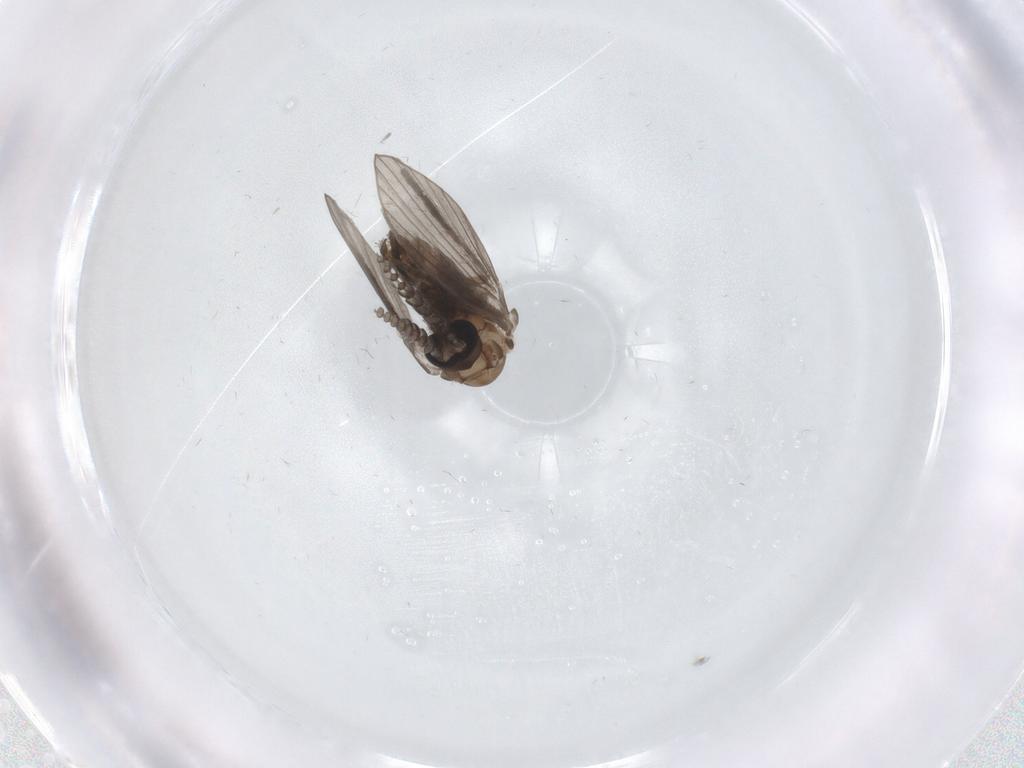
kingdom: Animalia
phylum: Arthropoda
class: Insecta
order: Diptera
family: Psychodidae
